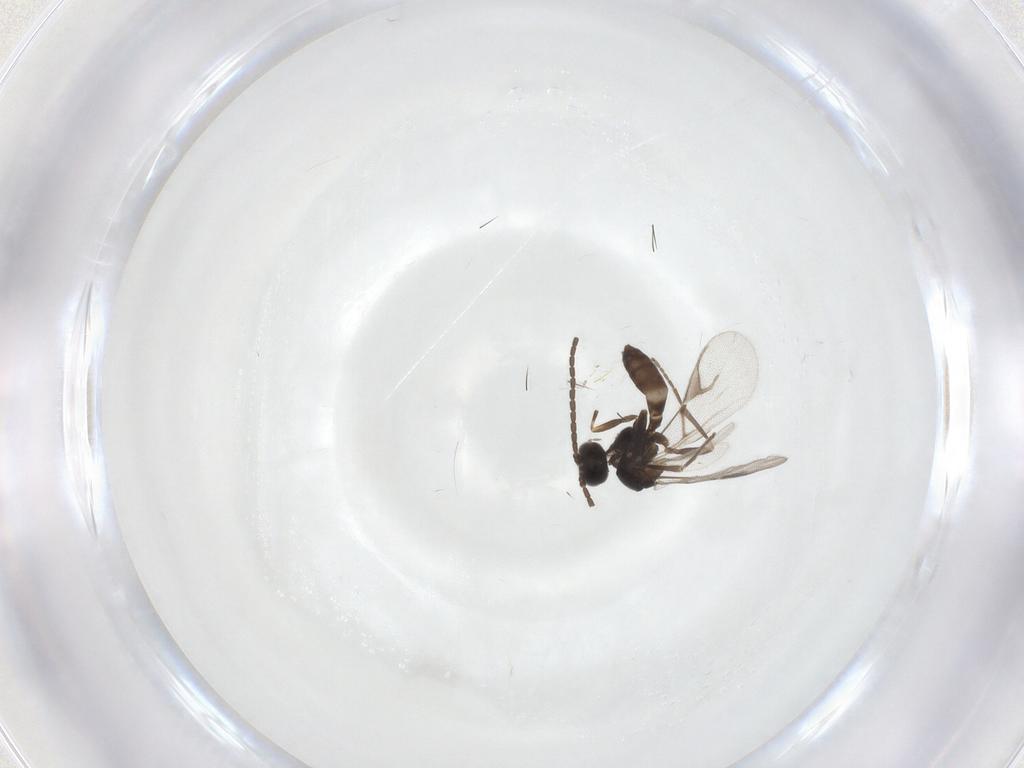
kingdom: Animalia
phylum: Arthropoda
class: Insecta
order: Hymenoptera
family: Braconidae
